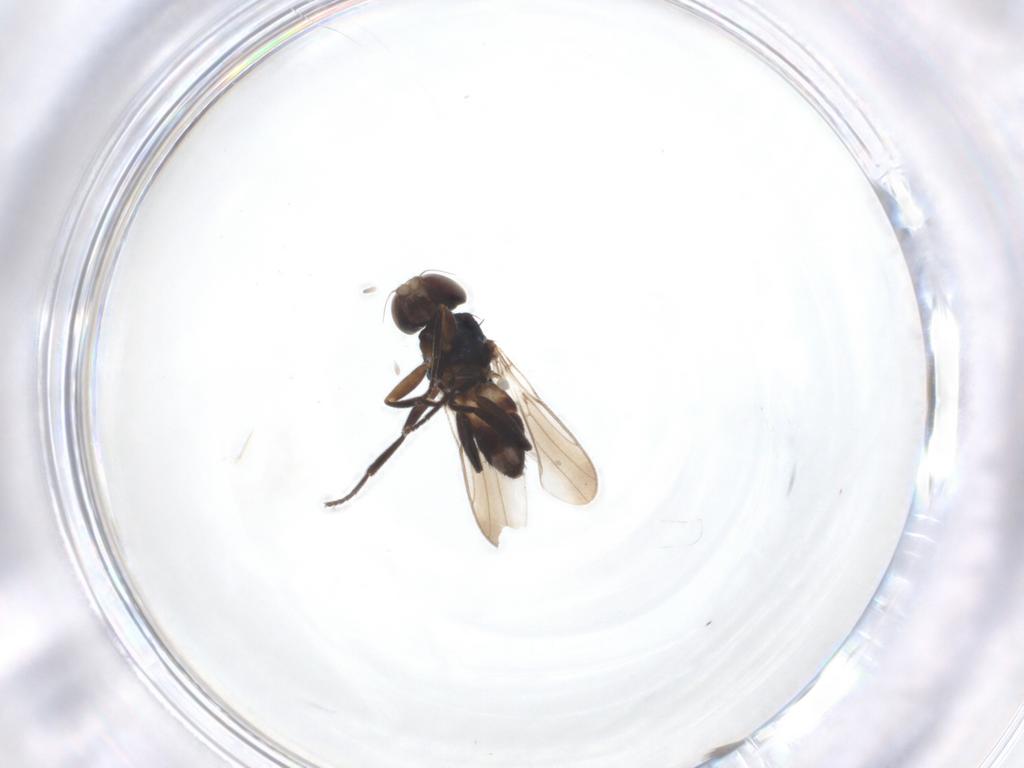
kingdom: Animalia
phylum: Arthropoda
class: Insecta
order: Diptera
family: Chloropidae
